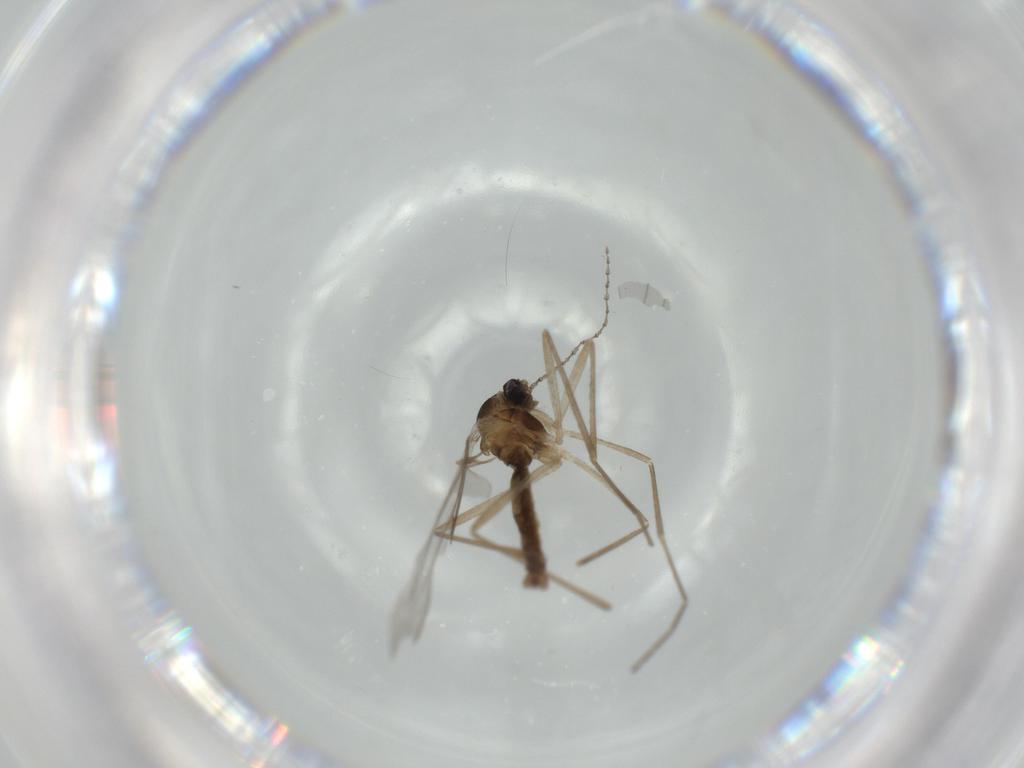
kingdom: Animalia
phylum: Arthropoda
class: Insecta
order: Diptera
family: Cecidomyiidae
